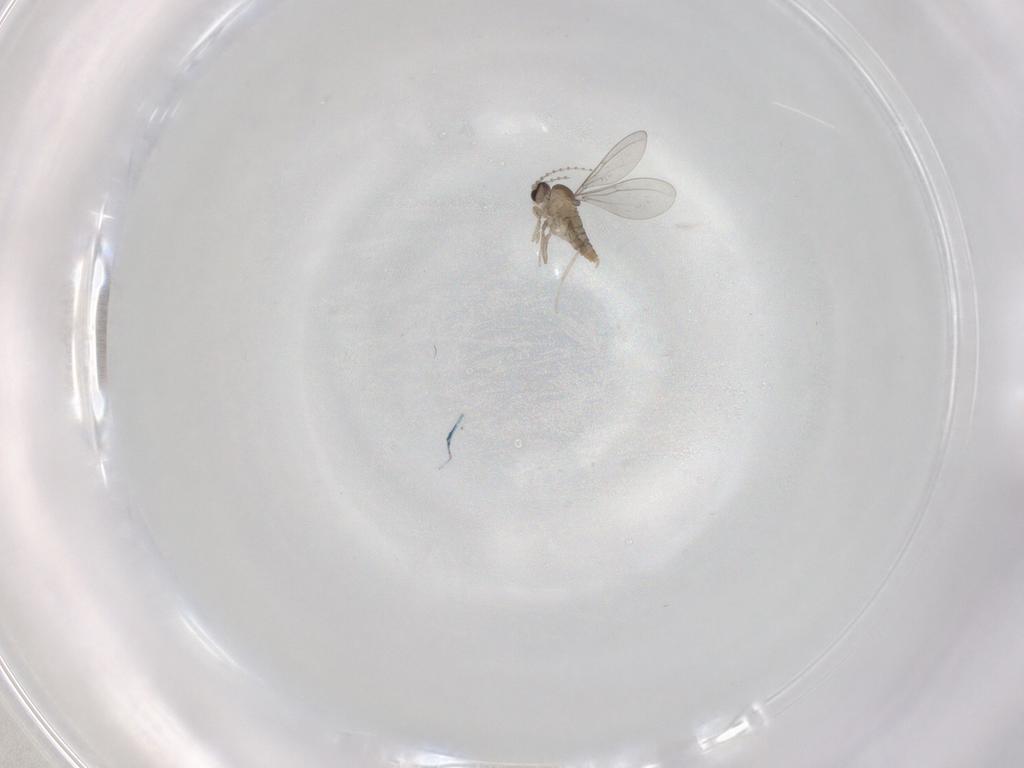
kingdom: Animalia
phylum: Arthropoda
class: Insecta
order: Diptera
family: Cecidomyiidae
